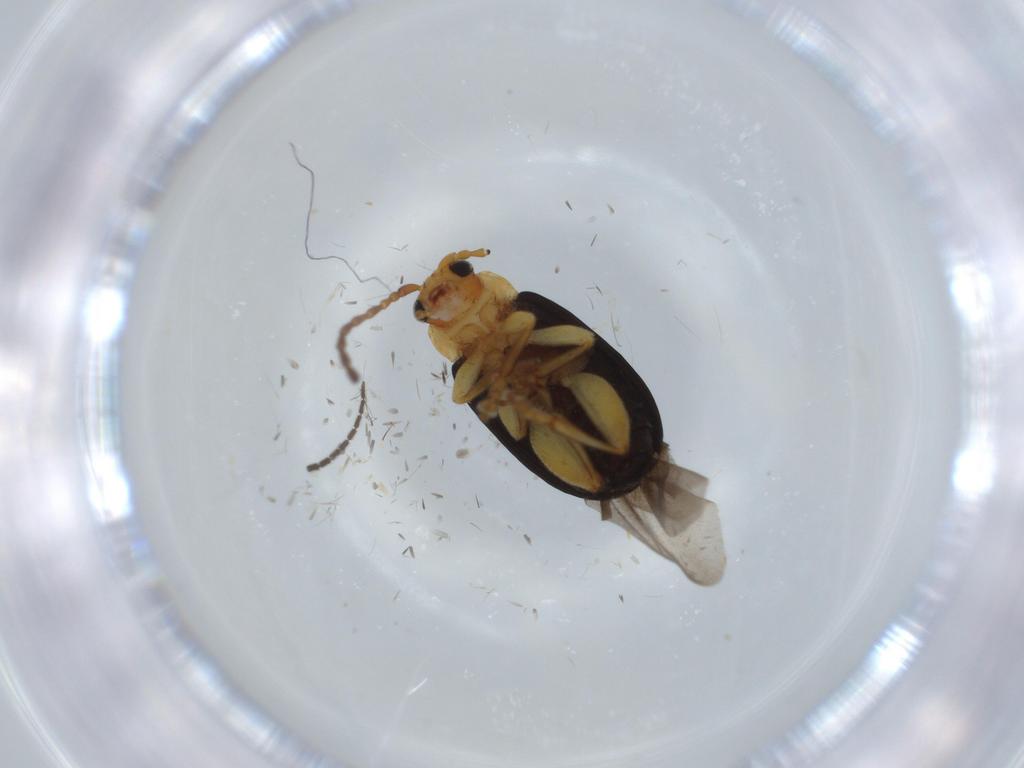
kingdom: Animalia
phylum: Arthropoda
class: Insecta
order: Coleoptera
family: Chrysomelidae
